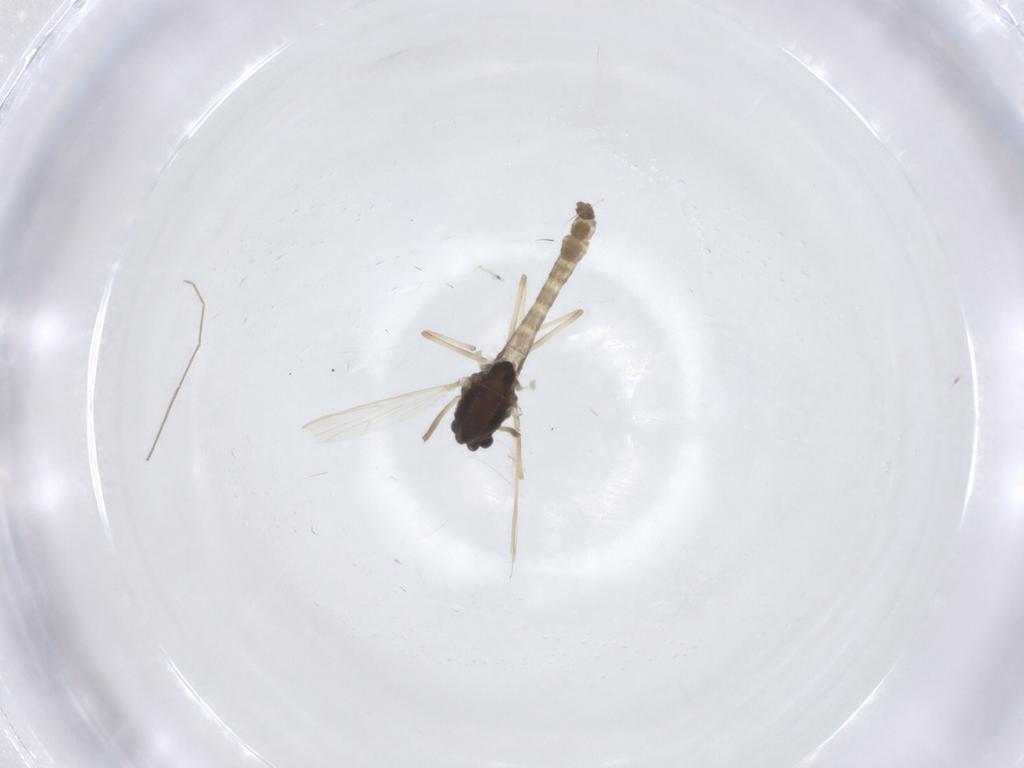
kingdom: Animalia
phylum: Arthropoda
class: Insecta
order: Diptera
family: Chironomidae
